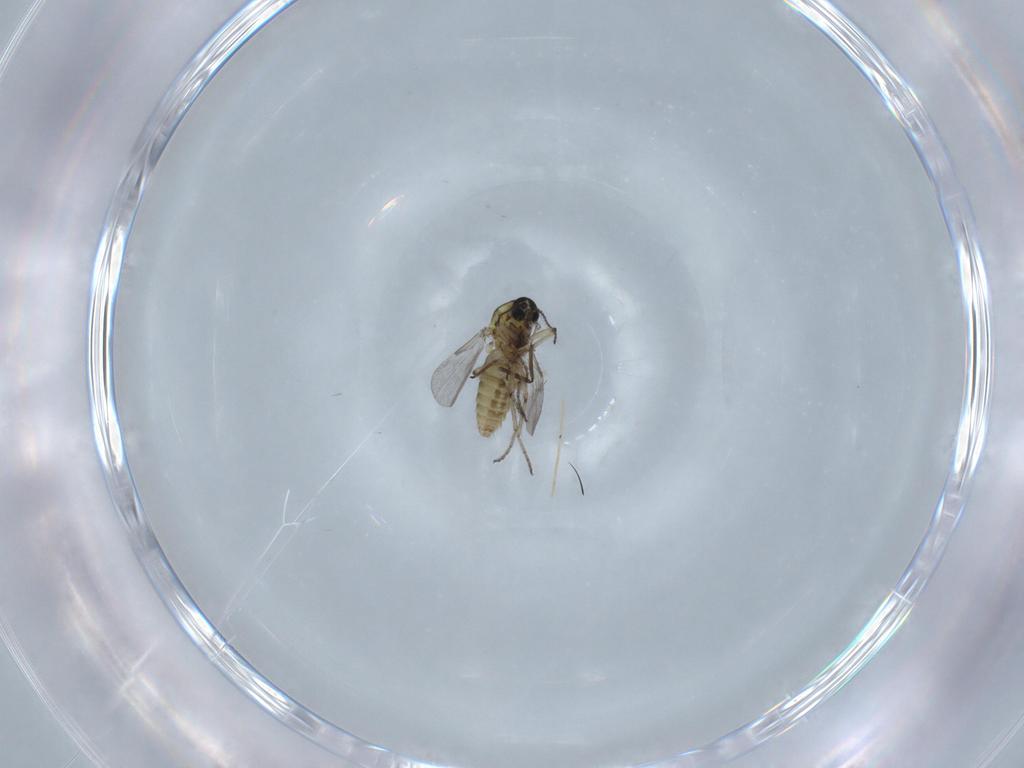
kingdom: Animalia
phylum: Arthropoda
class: Insecta
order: Diptera
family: Ceratopogonidae
